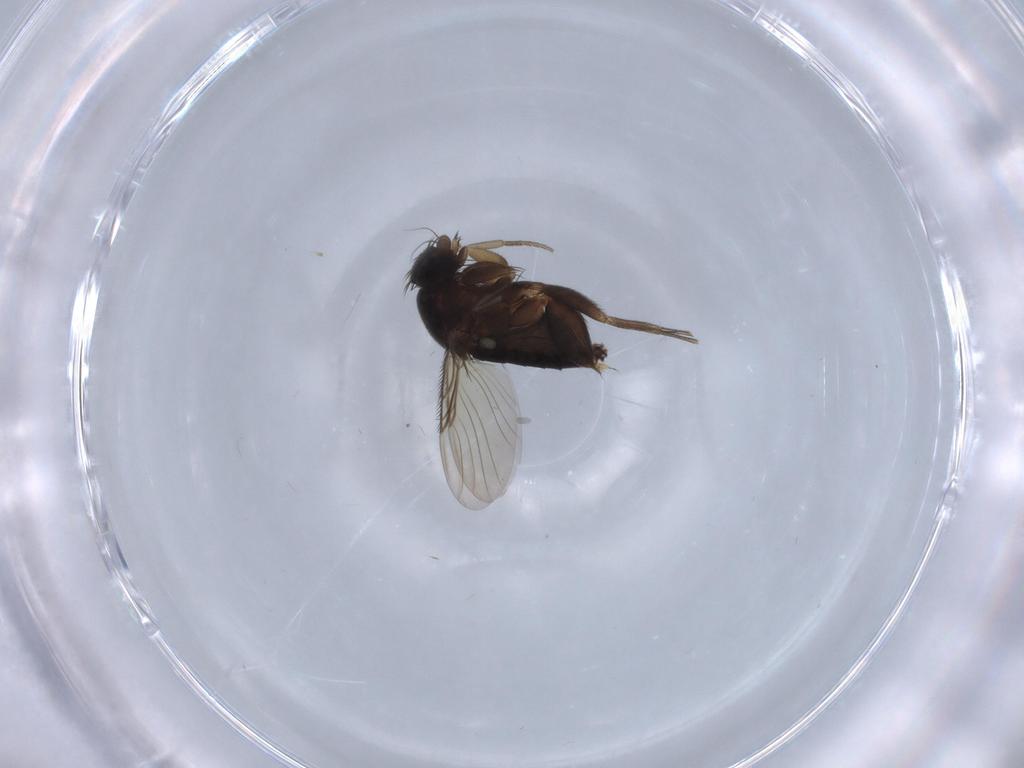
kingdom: Animalia
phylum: Arthropoda
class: Insecta
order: Diptera
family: Phoridae
